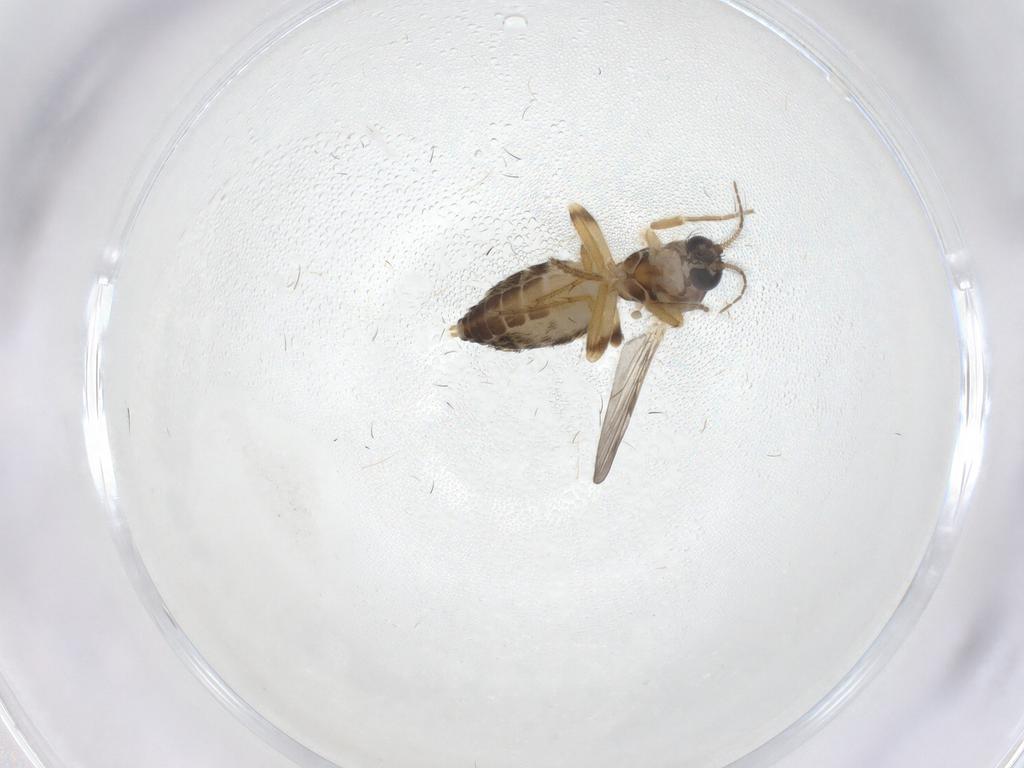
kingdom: Animalia
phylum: Arthropoda
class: Insecta
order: Diptera
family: Ceratopogonidae
